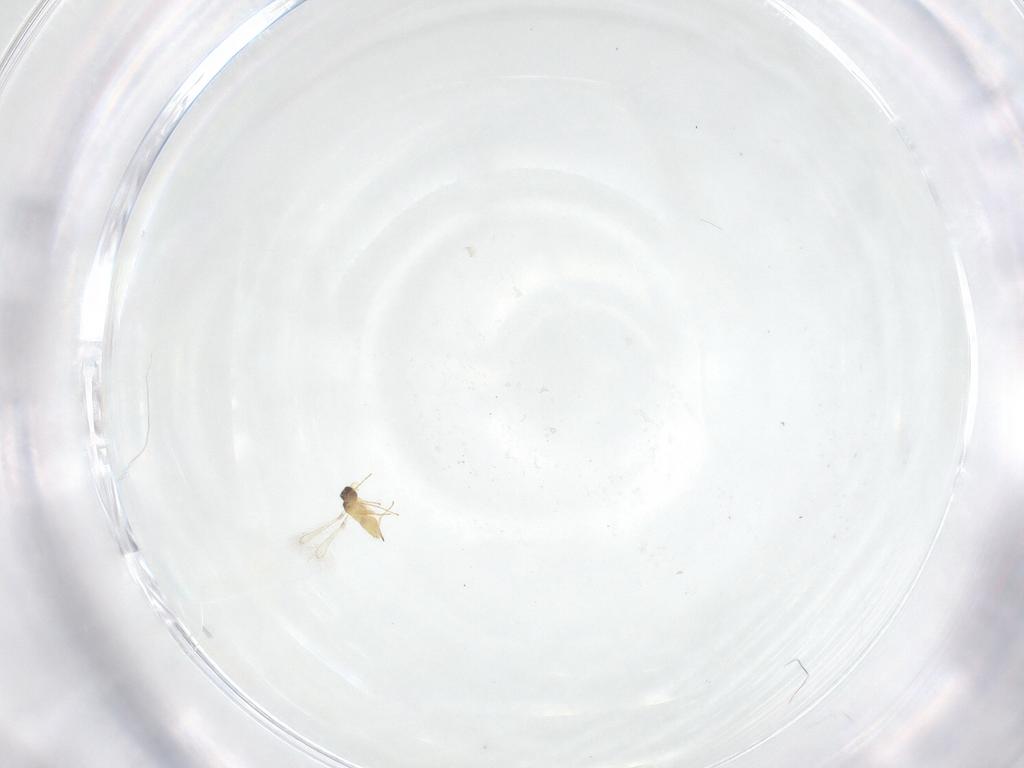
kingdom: Animalia
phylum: Arthropoda
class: Insecta
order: Hymenoptera
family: Mymaridae
